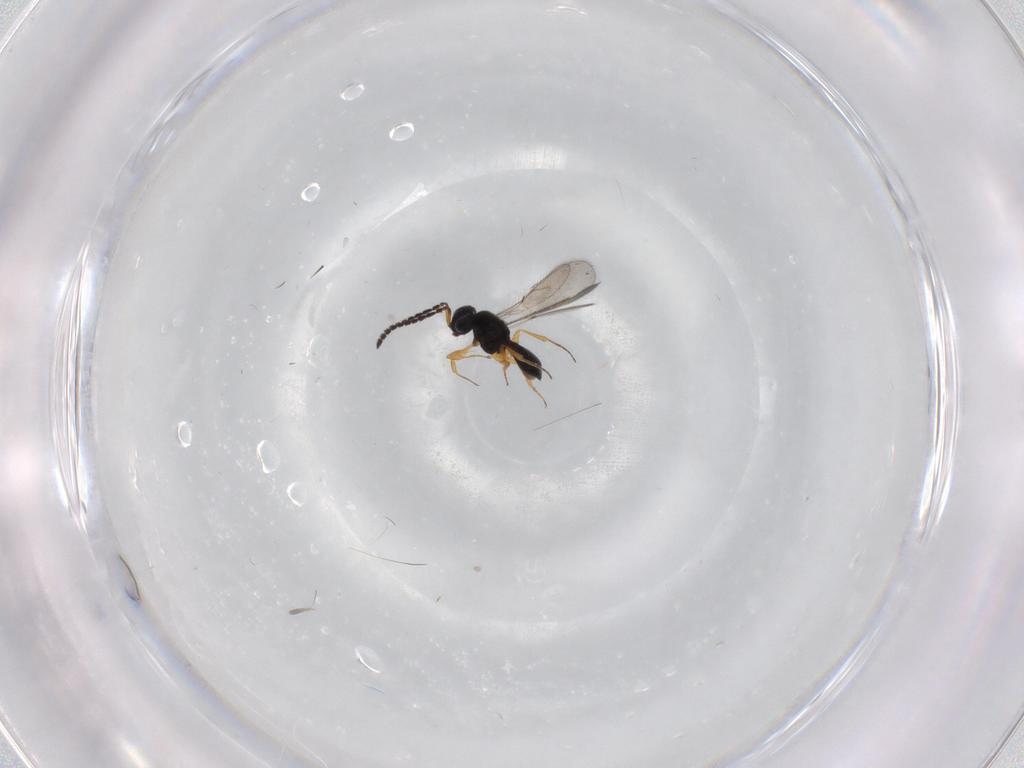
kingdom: Animalia
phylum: Arthropoda
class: Insecta
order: Hymenoptera
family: Scelionidae
